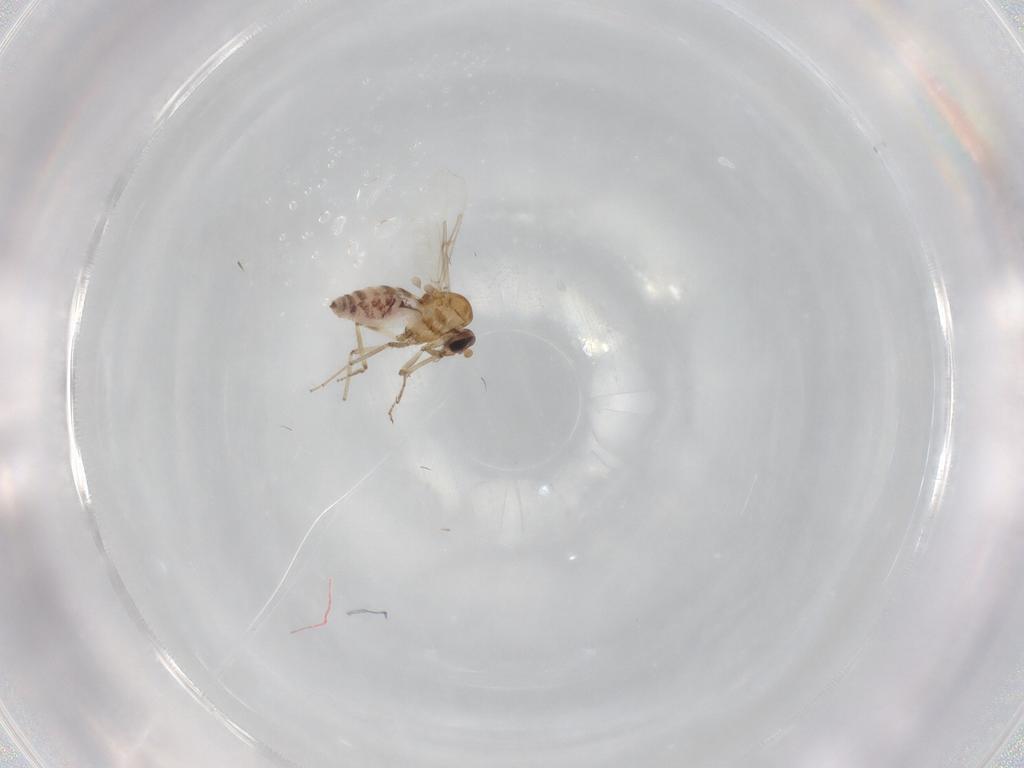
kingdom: Animalia
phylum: Arthropoda
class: Insecta
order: Diptera
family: Ceratopogonidae
